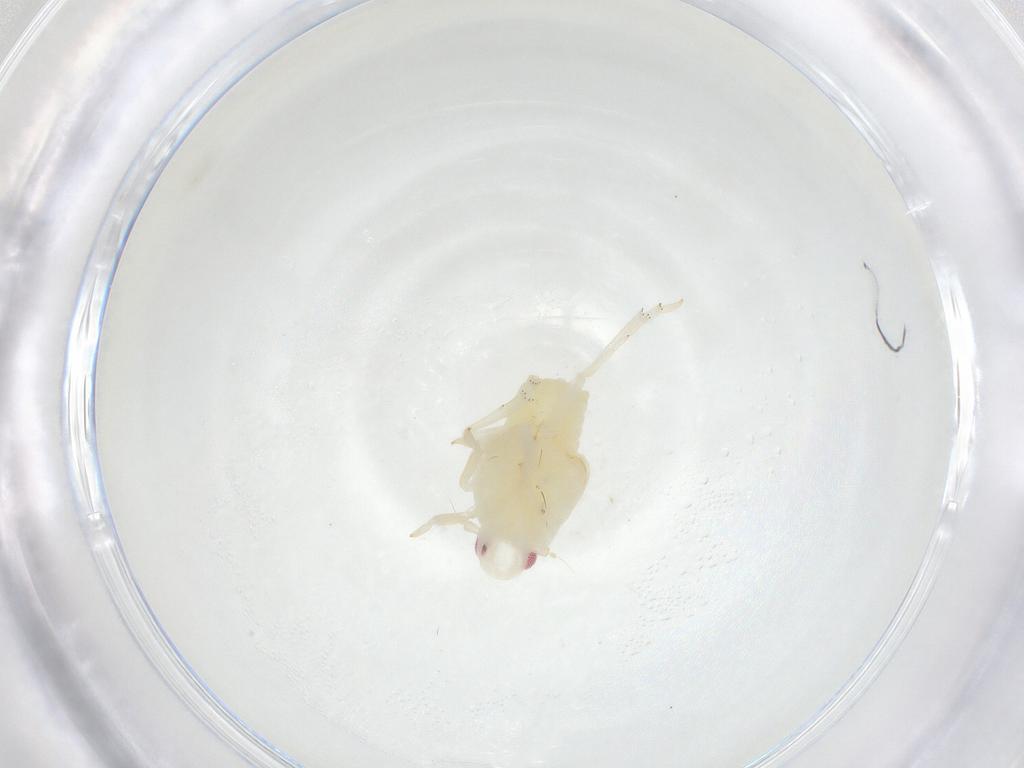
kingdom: Animalia
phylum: Arthropoda
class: Insecta
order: Hemiptera
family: Flatidae
